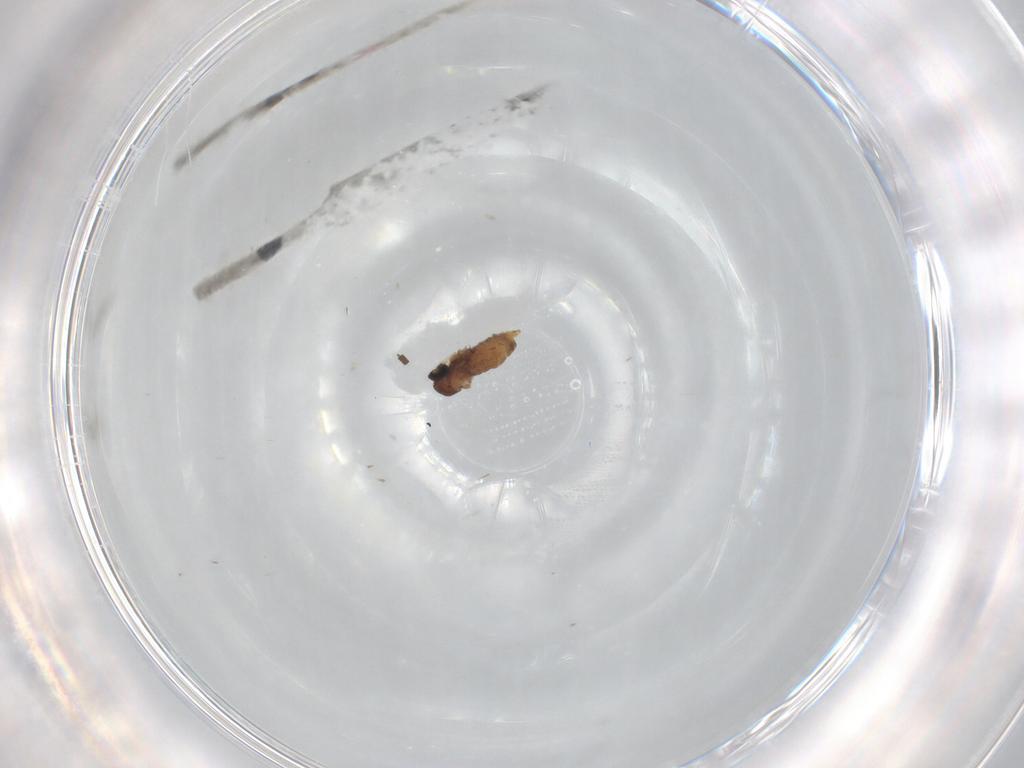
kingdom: Animalia
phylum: Arthropoda
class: Insecta
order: Diptera
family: Cecidomyiidae
